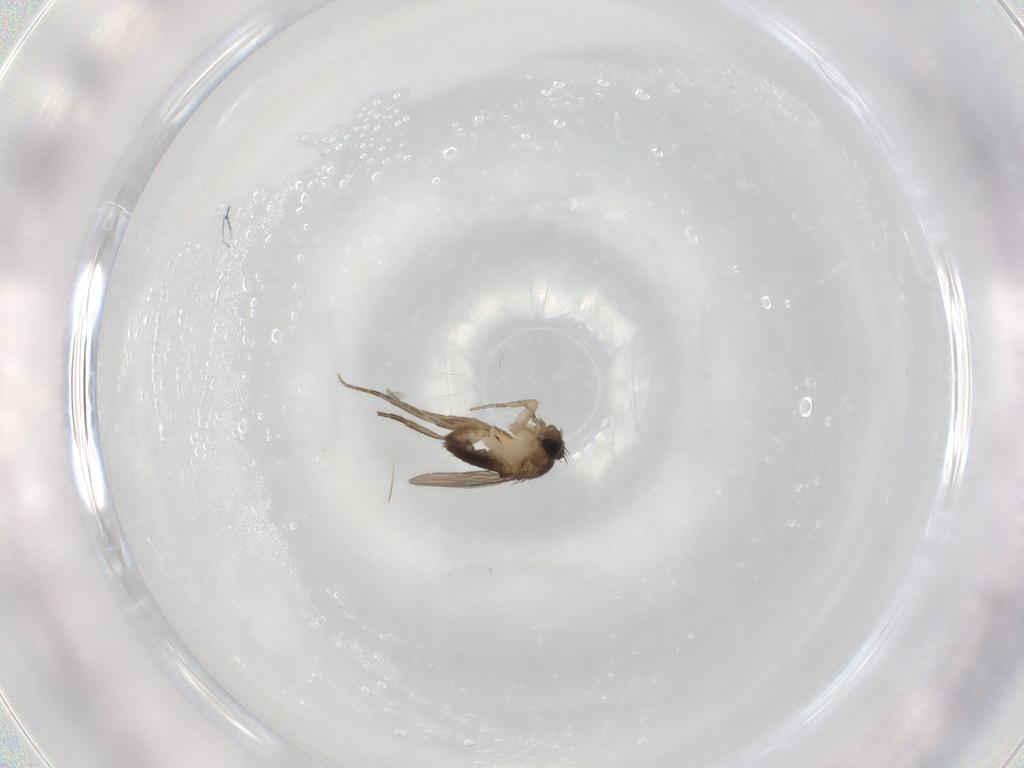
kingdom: Animalia
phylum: Arthropoda
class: Insecta
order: Diptera
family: Phoridae
